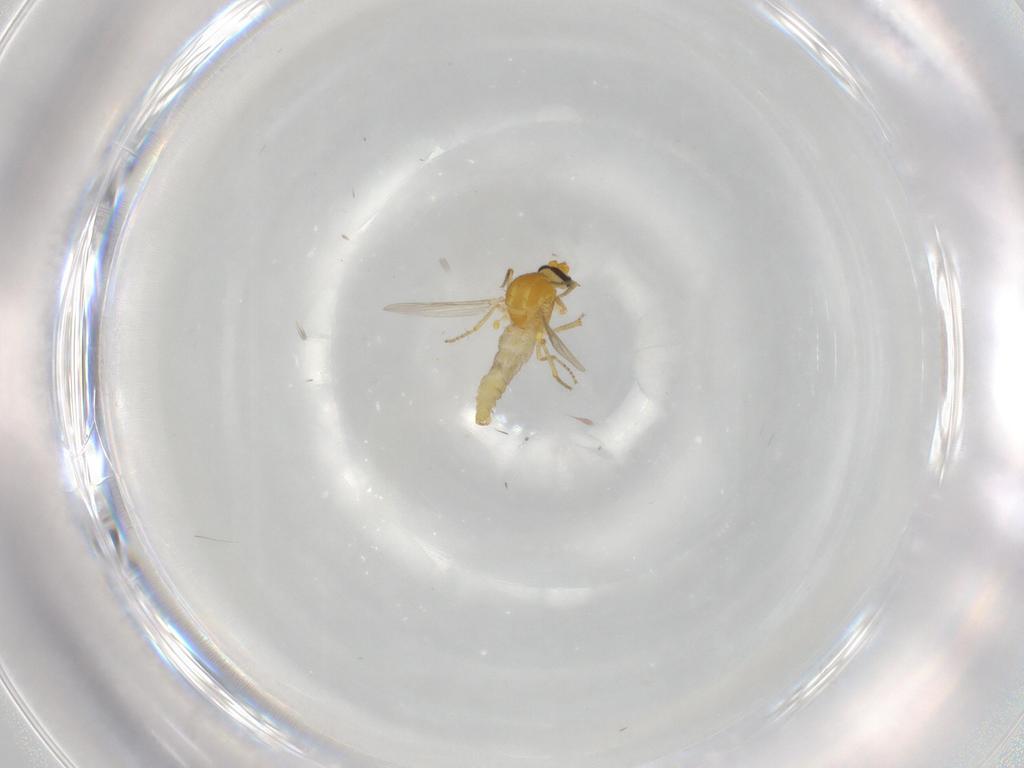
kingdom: Animalia
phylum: Arthropoda
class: Insecta
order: Diptera
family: Ceratopogonidae
